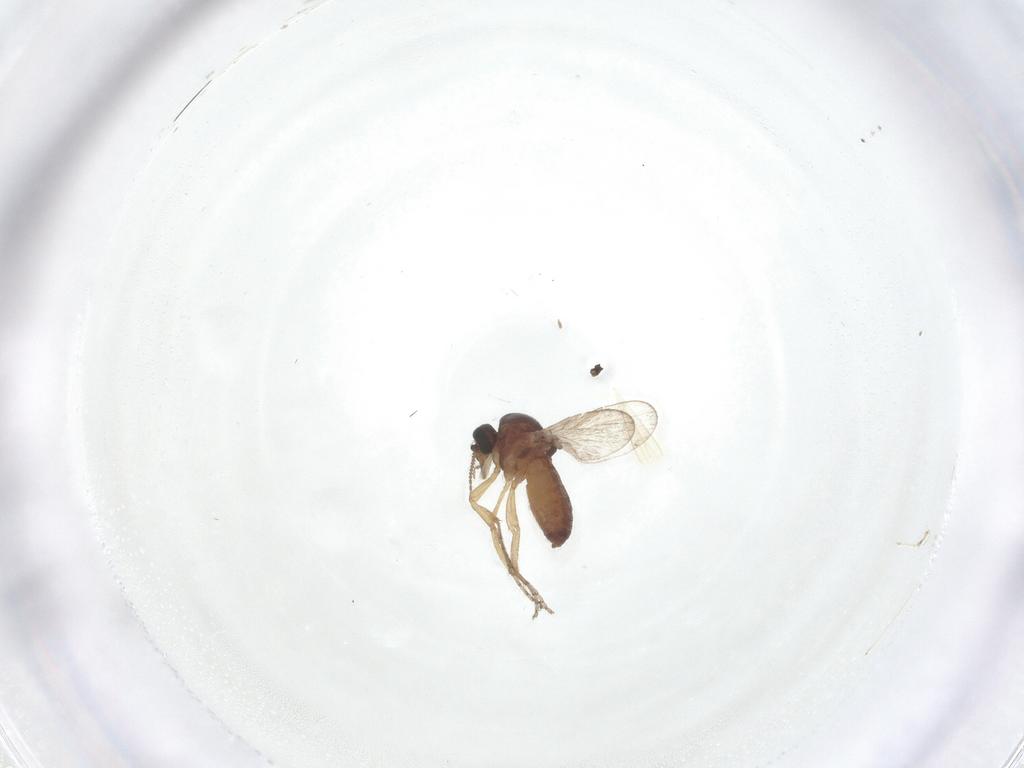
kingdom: Animalia
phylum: Arthropoda
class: Insecta
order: Diptera
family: Ceratopogonidae
